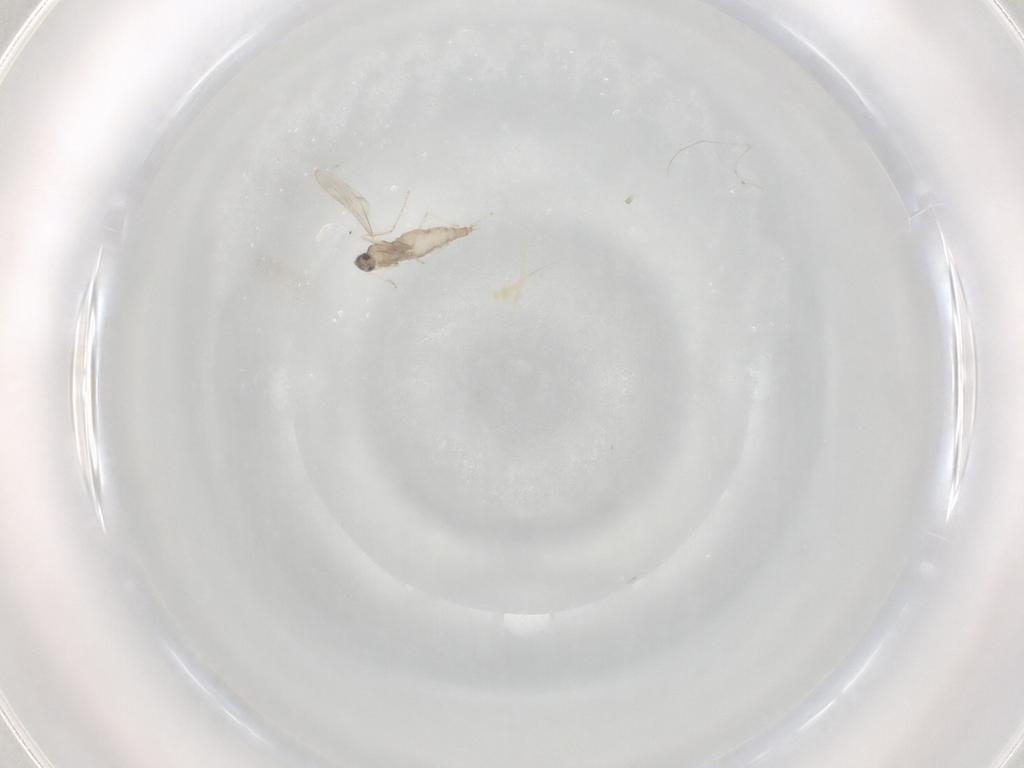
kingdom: Animalia
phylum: Arthropoda
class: Insecta
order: Diptera
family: Cecidomyiidae
